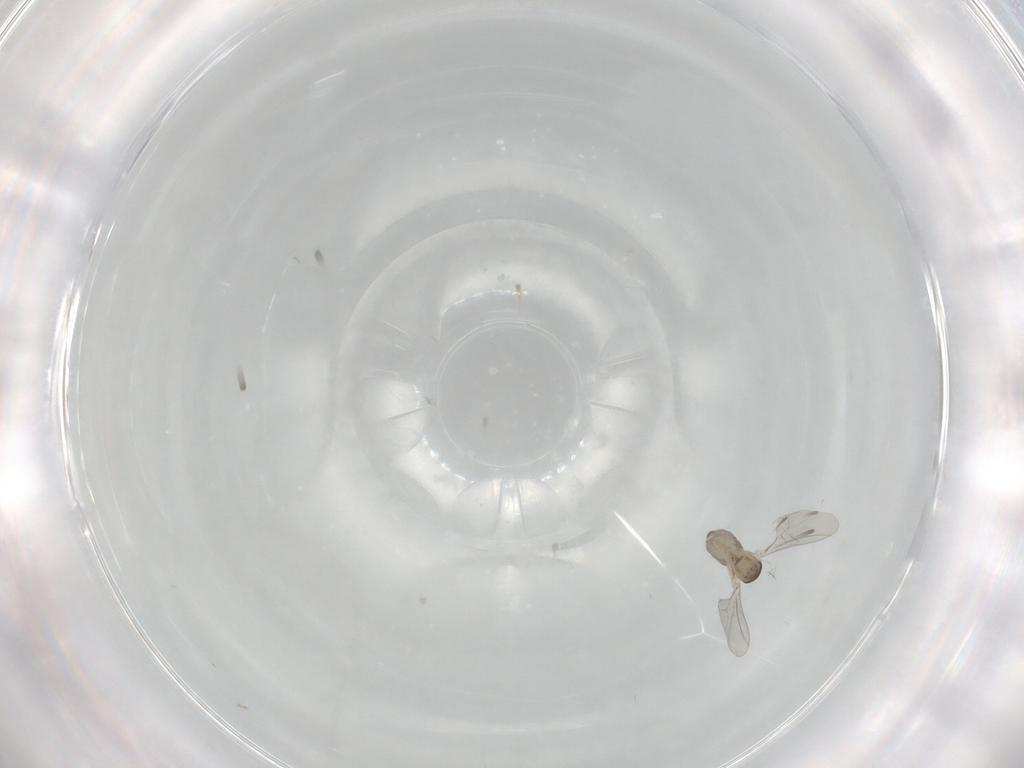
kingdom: Animalia
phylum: Arthropoda
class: Insecta
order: Diptera
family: Cecidomyiidae
